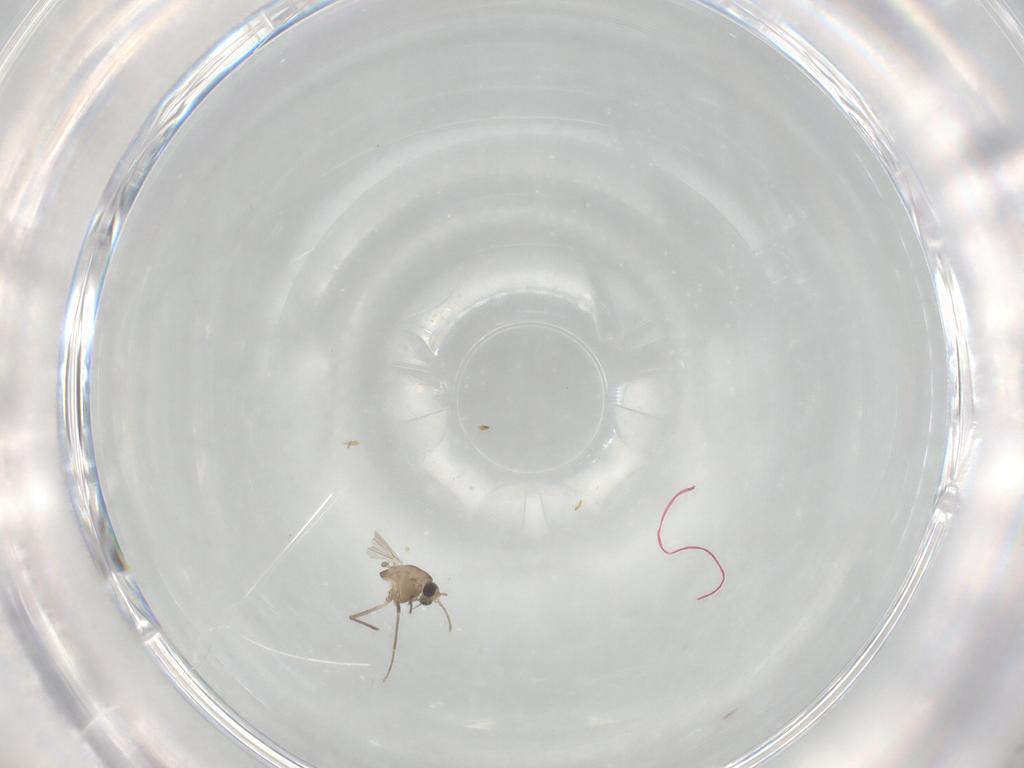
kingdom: Animalia
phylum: Arthropoda
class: Insecta
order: Diptera
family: Chironomidae
